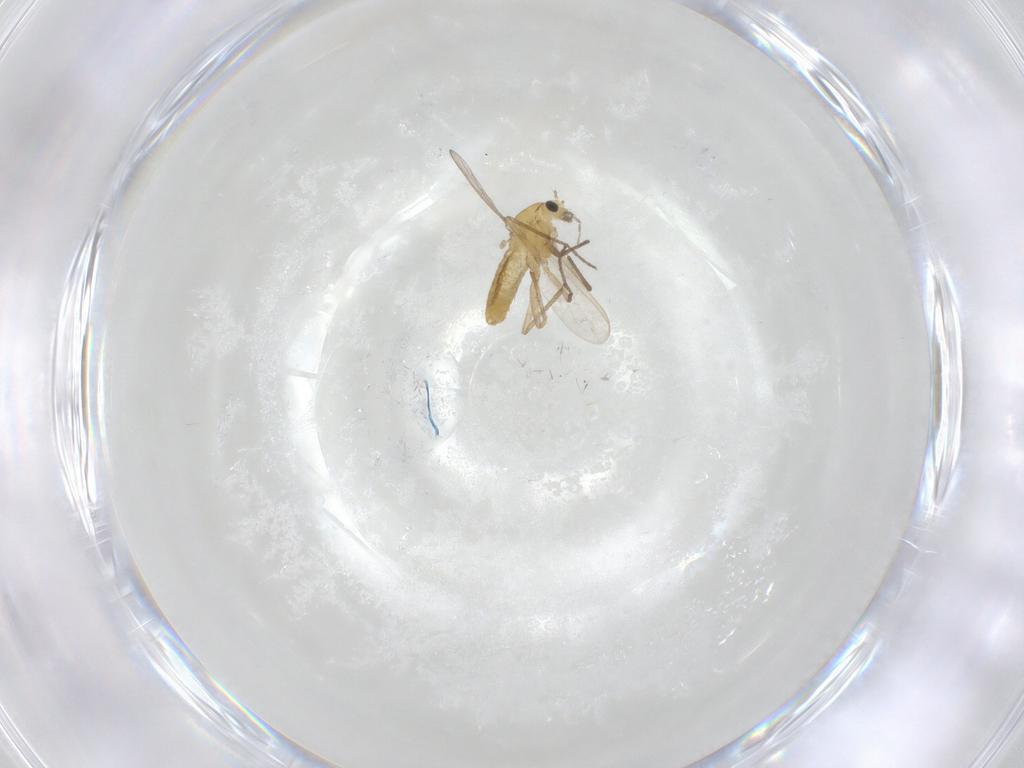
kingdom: Animalia
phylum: Arthropoda
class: Insecta
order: Diptera
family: Chironomidae
